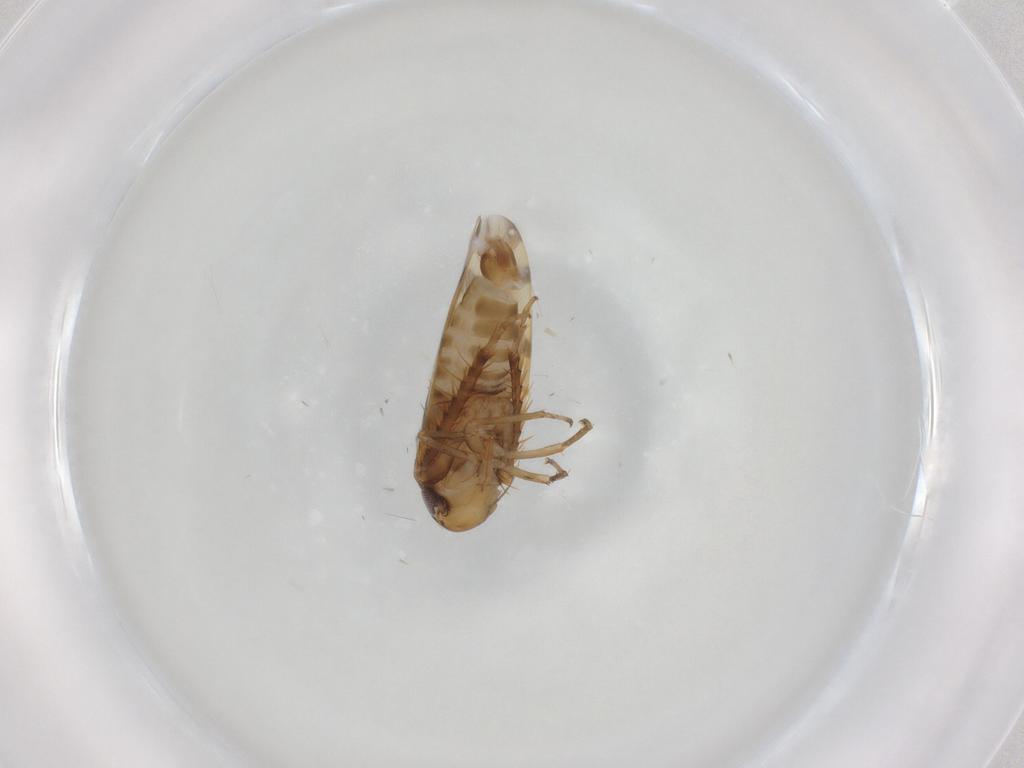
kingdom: Animalia
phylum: Arthropoda
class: Insecta
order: Hemiptera
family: Cicadellidae
